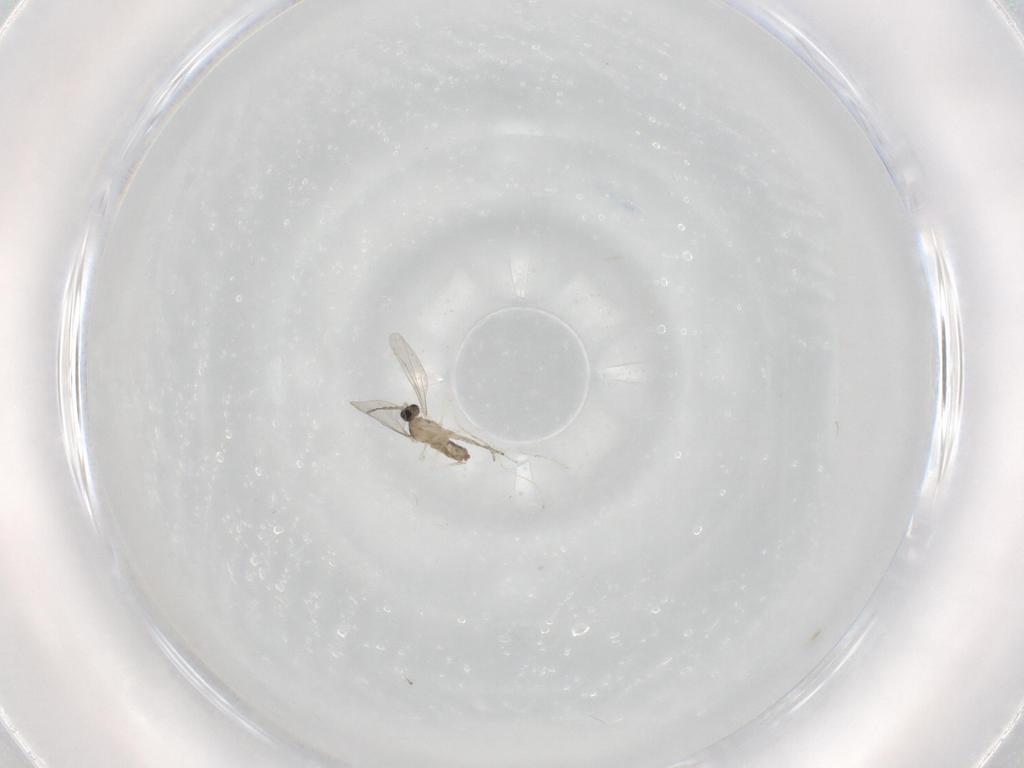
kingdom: Animalia
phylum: Arthropoda
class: Insecta
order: Diptera
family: Cecidomyiidae
